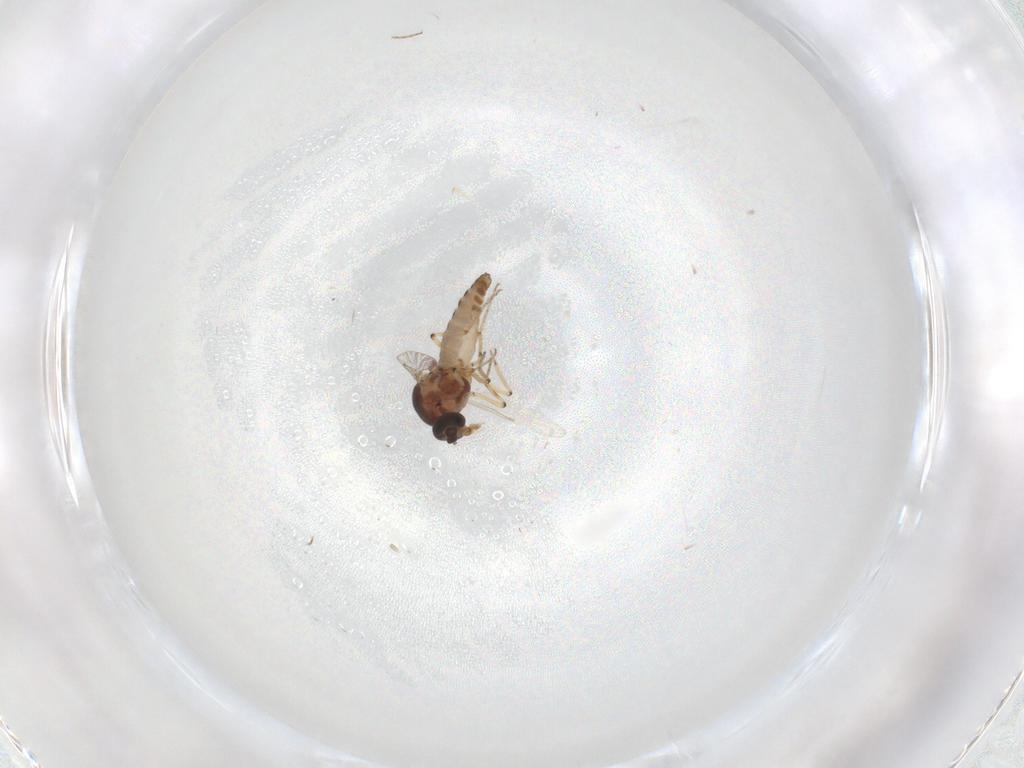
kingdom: Animalia
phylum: Arthropoda
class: Insecta
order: Diptera
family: Ceratopogonidae
